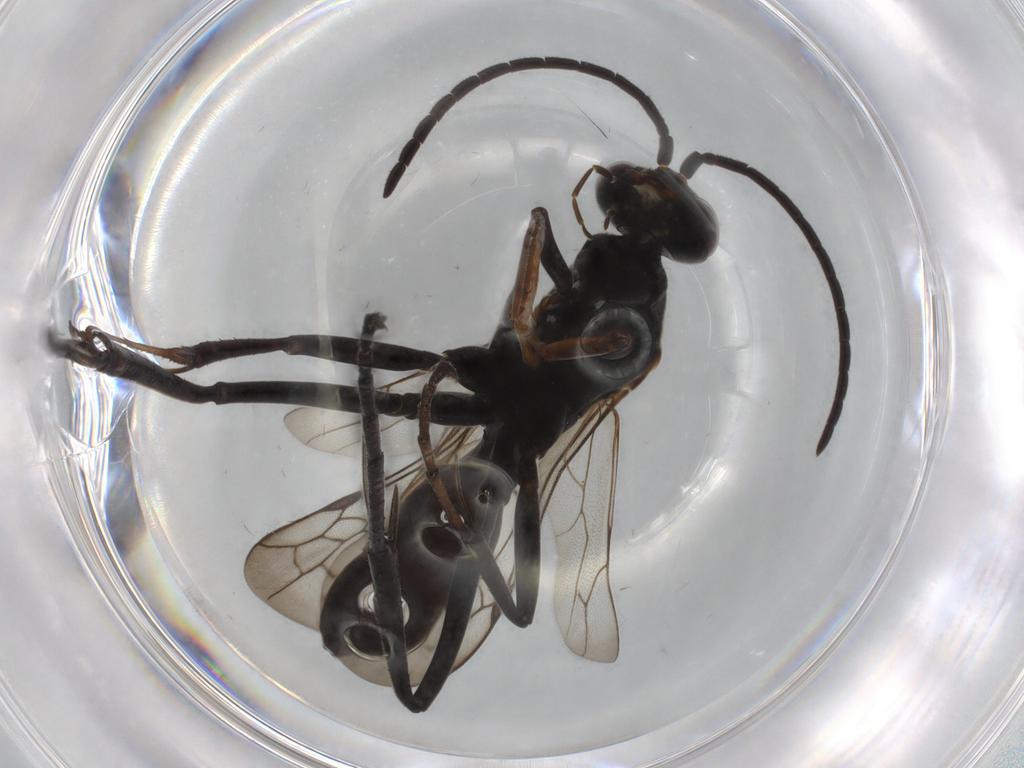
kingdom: Animalia
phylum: Arthropoda
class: Insecta
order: Hymenoptera
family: Pompilidae
